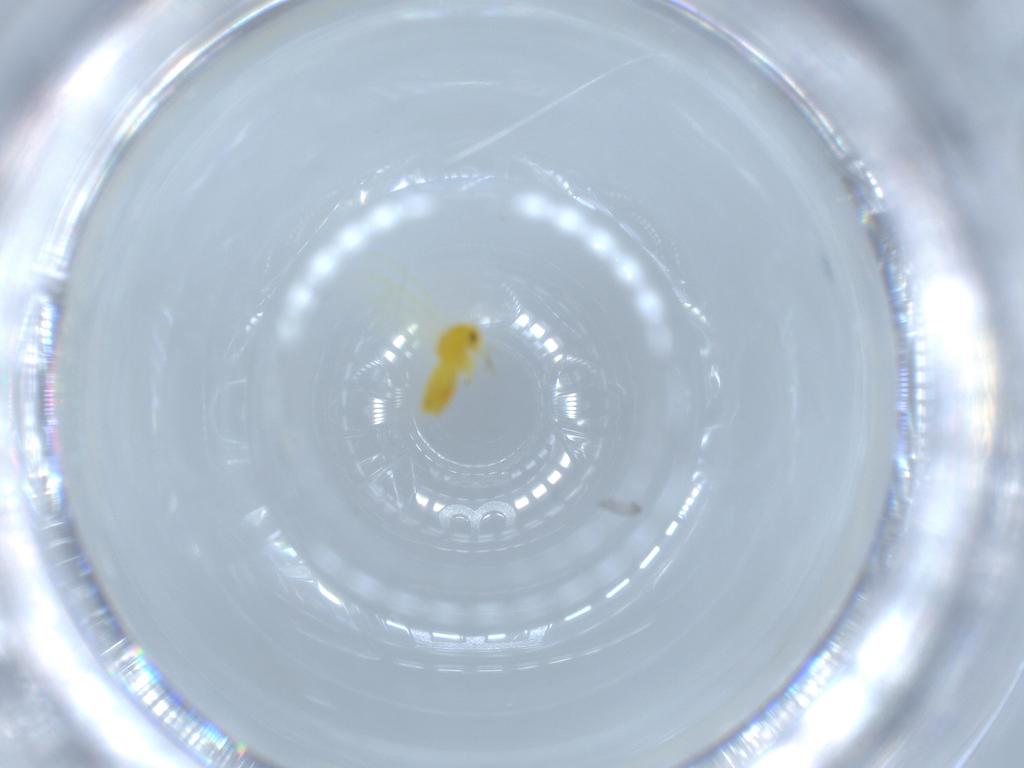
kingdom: Animalia
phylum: Arthropoda
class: Insecta
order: Hemiptera
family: Aleyrodidae
